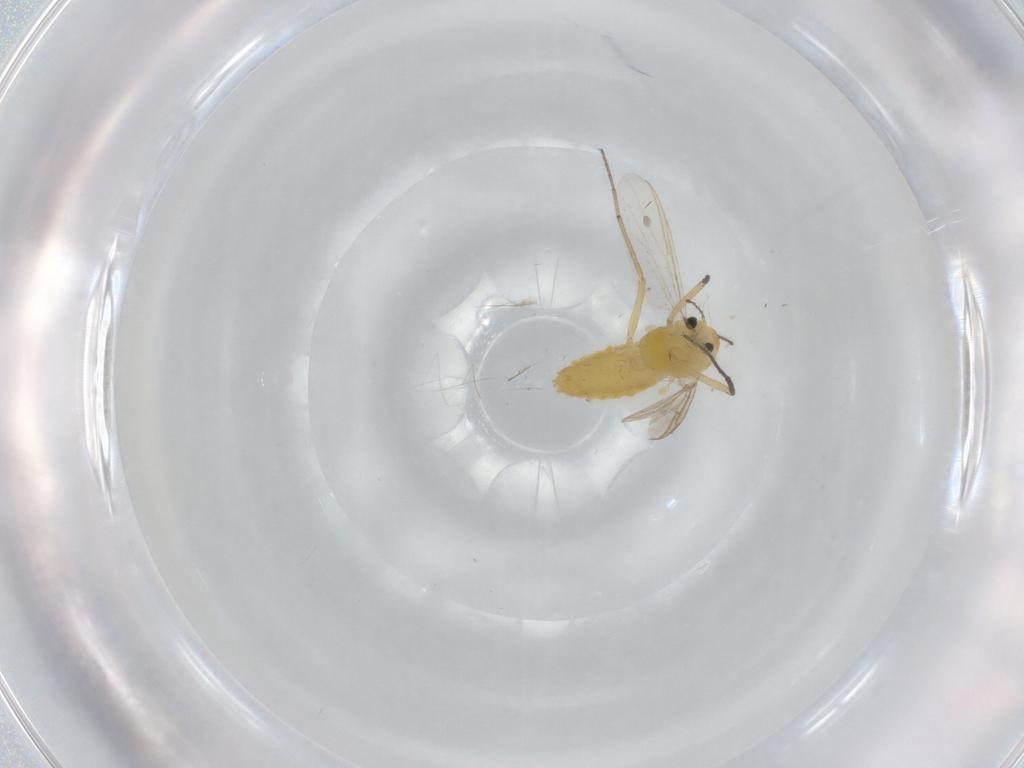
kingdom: Animalia
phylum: Arthropoda
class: Insecta
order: Diptera
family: Chironomidae
